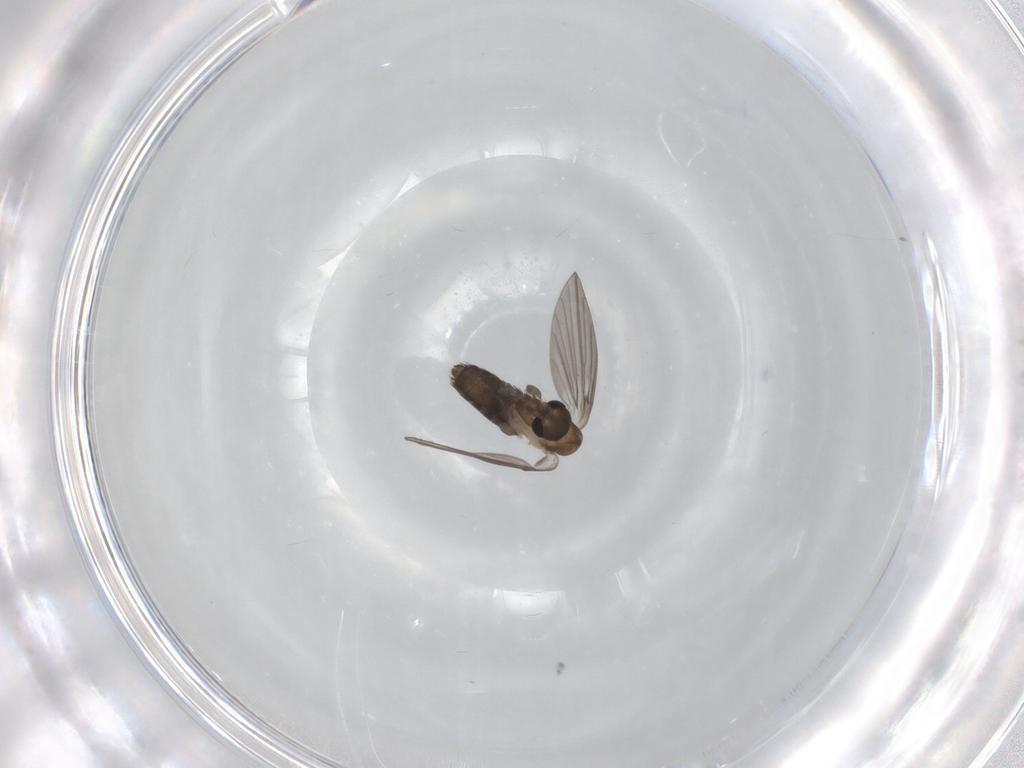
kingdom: Animalia
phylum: Arthropoda
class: Insecta
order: Diptera
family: Psychodidae
